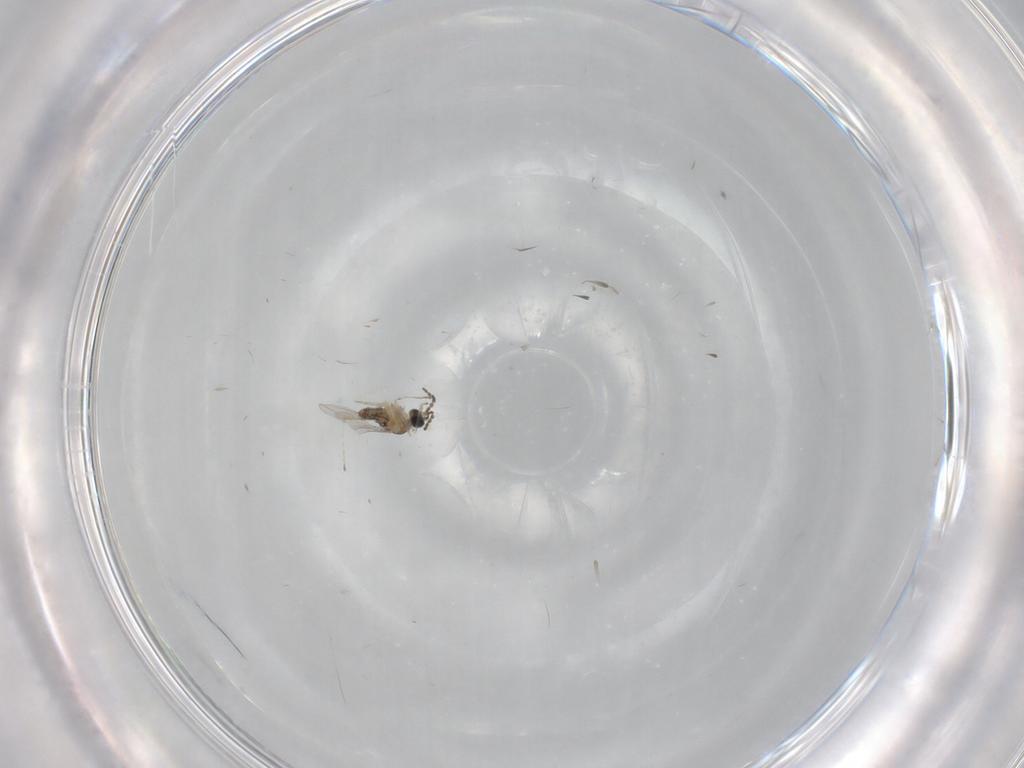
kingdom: Animalia
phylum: Arthropoda
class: Insecta
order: Diptera
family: Cecidomyiidae
